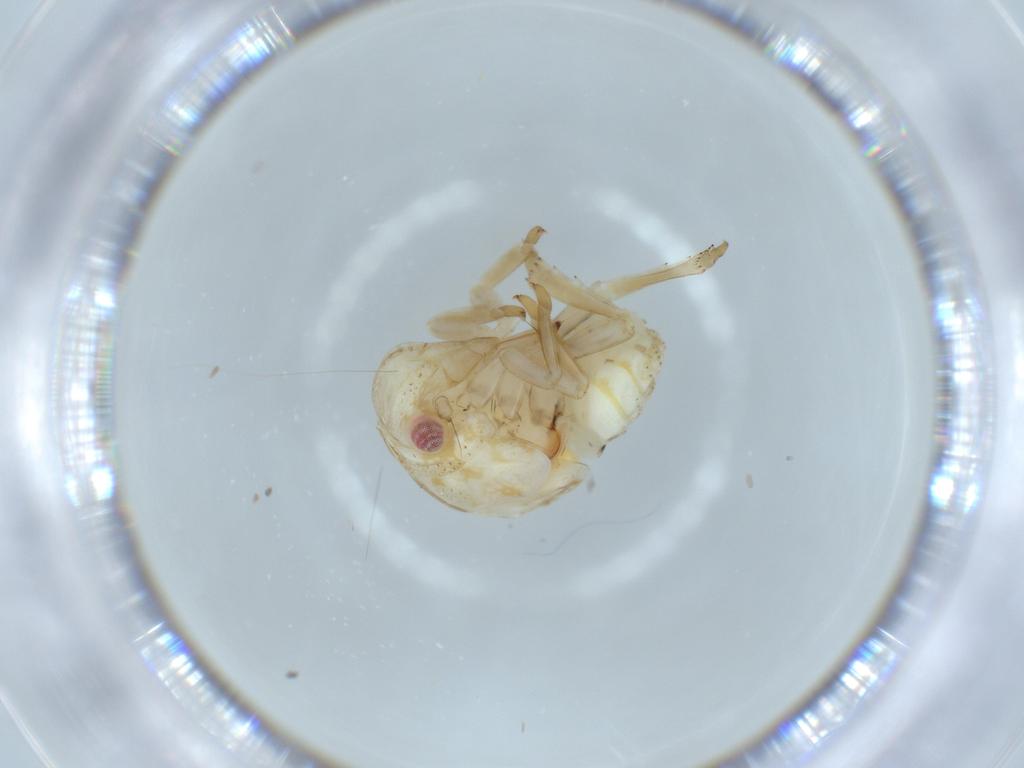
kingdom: Animalia
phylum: Arthropoda
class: Insecta
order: Hemiptera
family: Acanaloniidae
